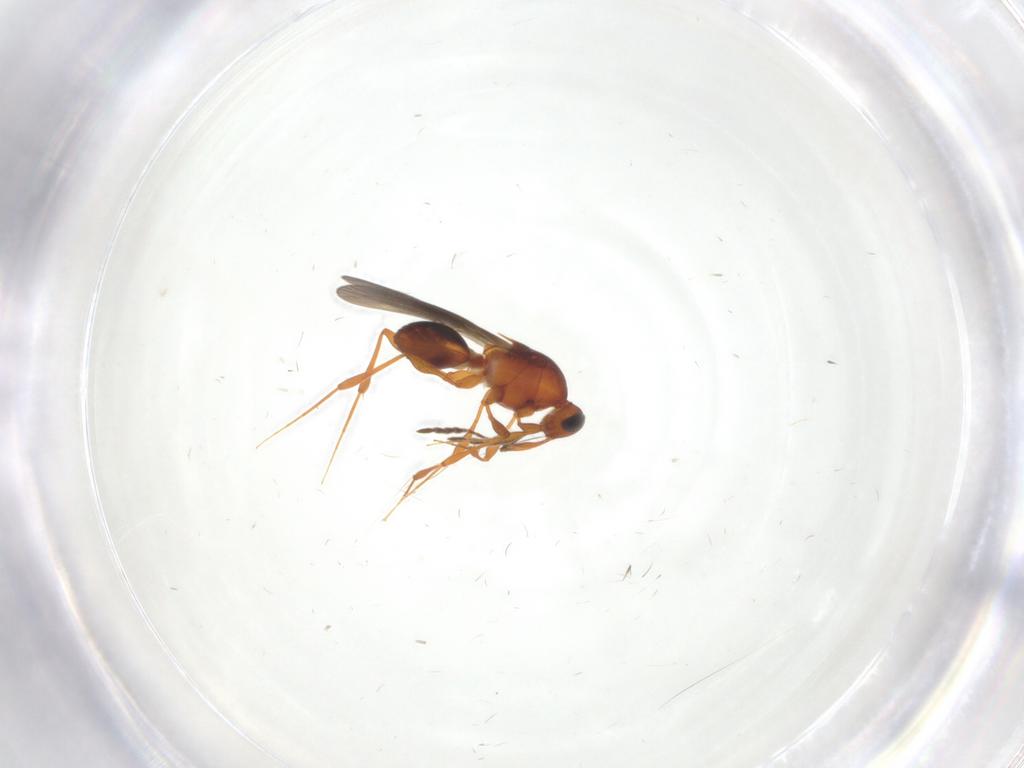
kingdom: Animalia
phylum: Arthropoda
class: Insecta
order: Hymenoptera
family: Platygastridae
